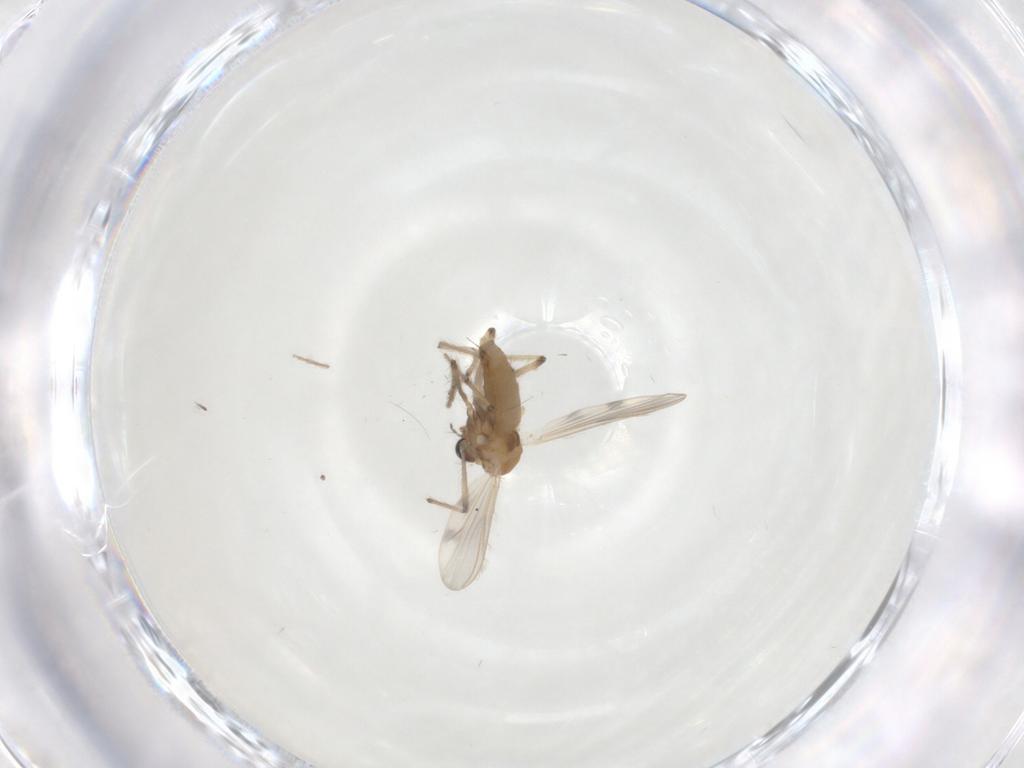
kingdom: Animalia
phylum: Arthropoda
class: Insecta
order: Diptera
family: Chironomidae
